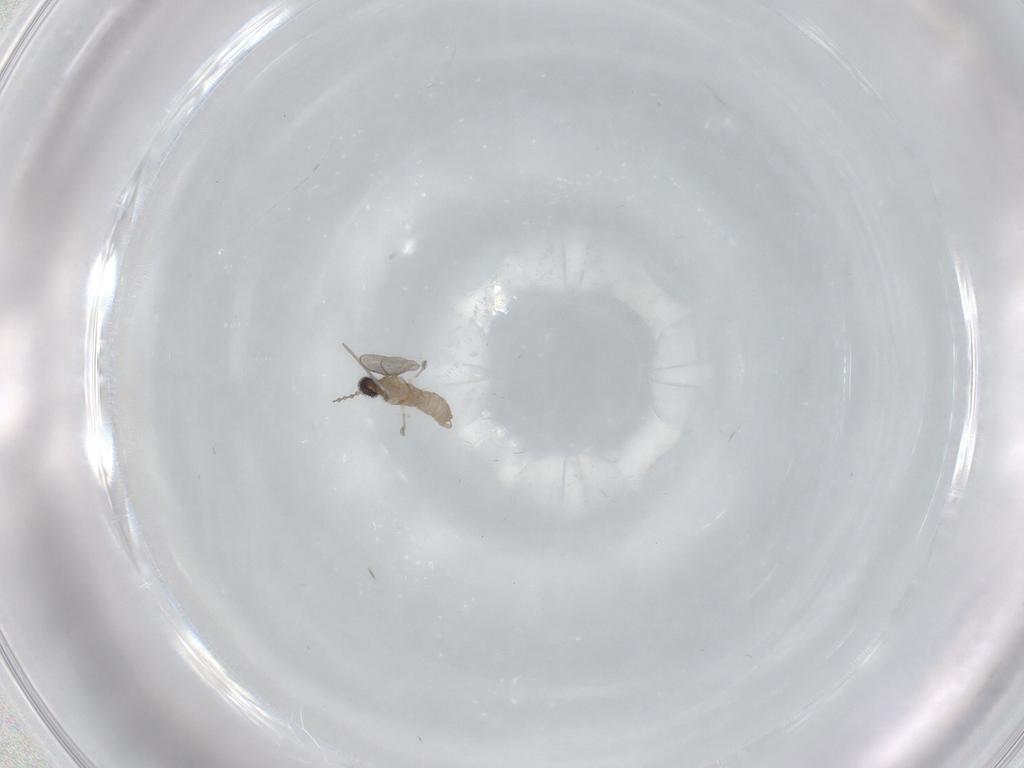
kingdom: Animalia
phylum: Arthropoda
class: Insecta
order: Diptera
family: Cecidomyiidae
